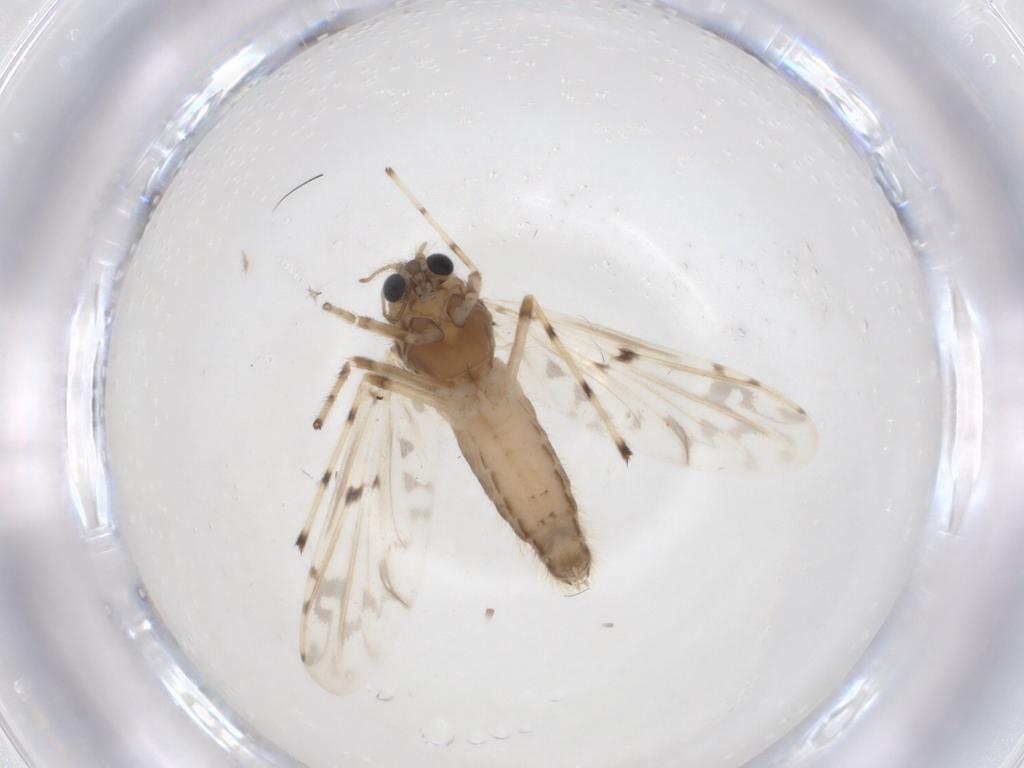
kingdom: Animalia
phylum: Arthropoda
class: Insecta
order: Diptera
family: Chironomidae
